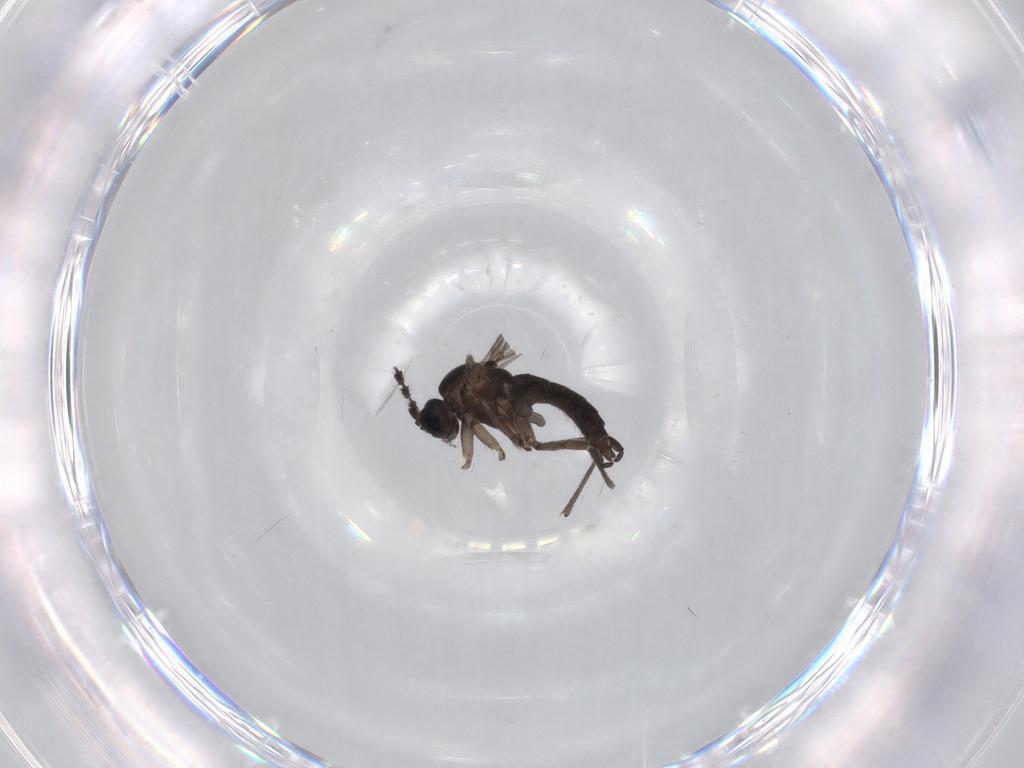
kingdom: Animalia
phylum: Arthropoda
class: Insecta
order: Diptera
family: Sciaridae
